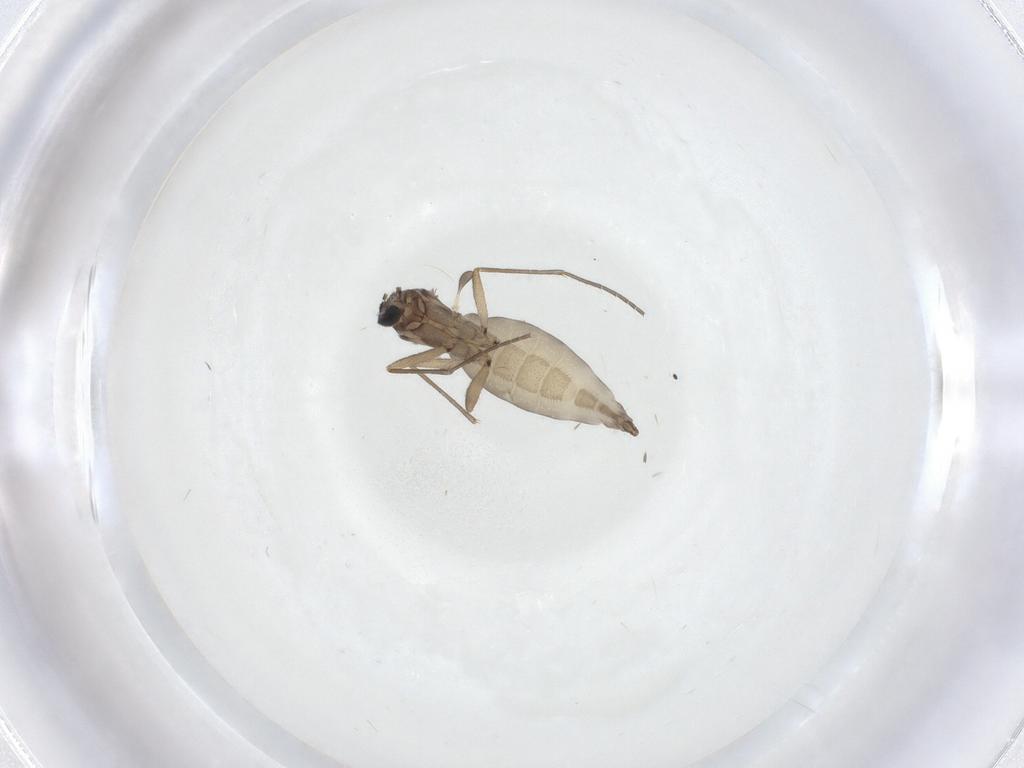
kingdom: Animalia
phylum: Arthropoda
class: Insecta
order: Diptera
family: Sciaridae
